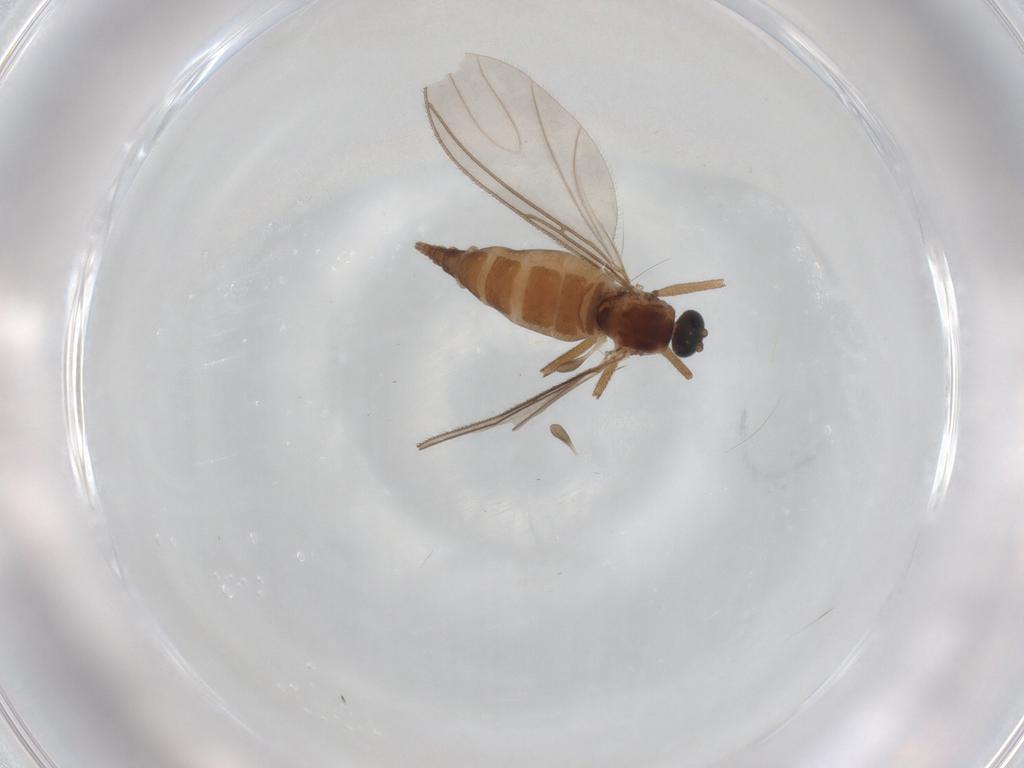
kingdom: Animalia
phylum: Arthropoda
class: Insecta
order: Diptera
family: Sciaridae
